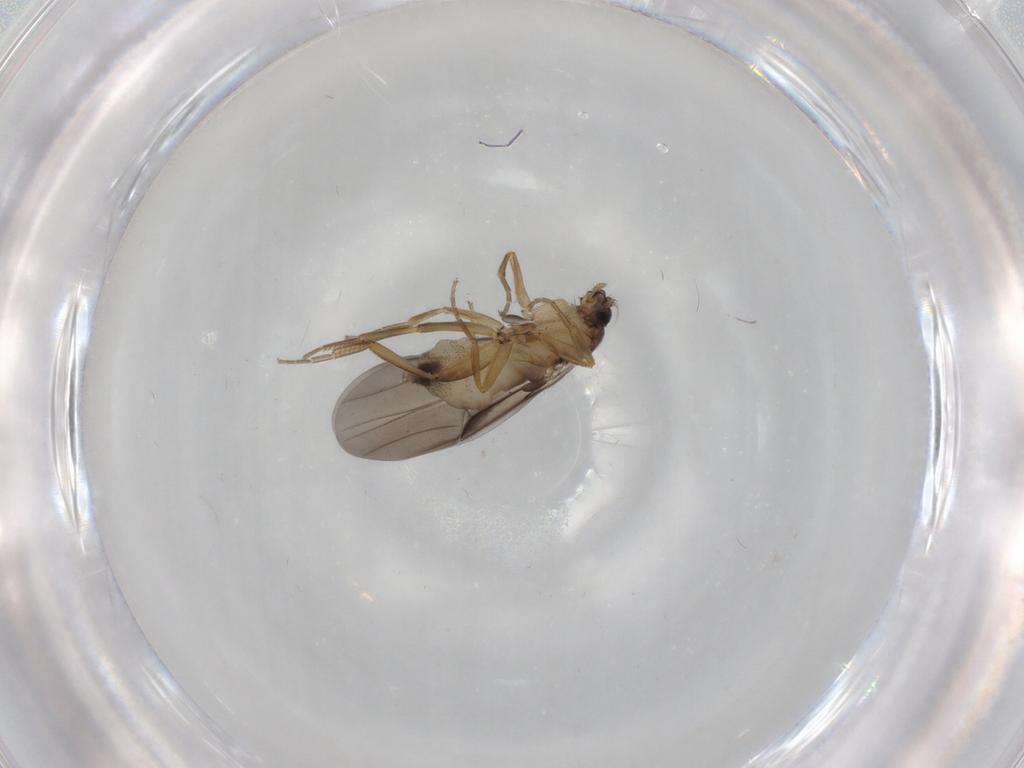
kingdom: Animalia
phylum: Arthropoda
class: Insecta
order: Diptera
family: Phoridae
